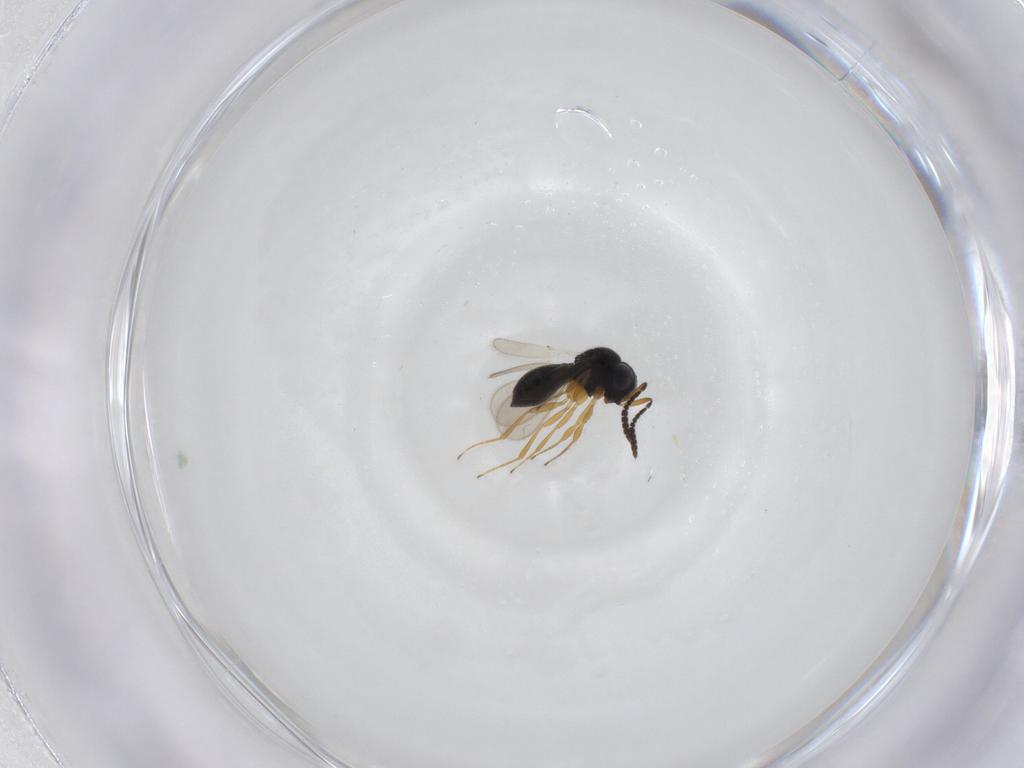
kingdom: Animalia
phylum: Arthropoda
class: Insecta
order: Hymenoptera
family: Scelionidae
